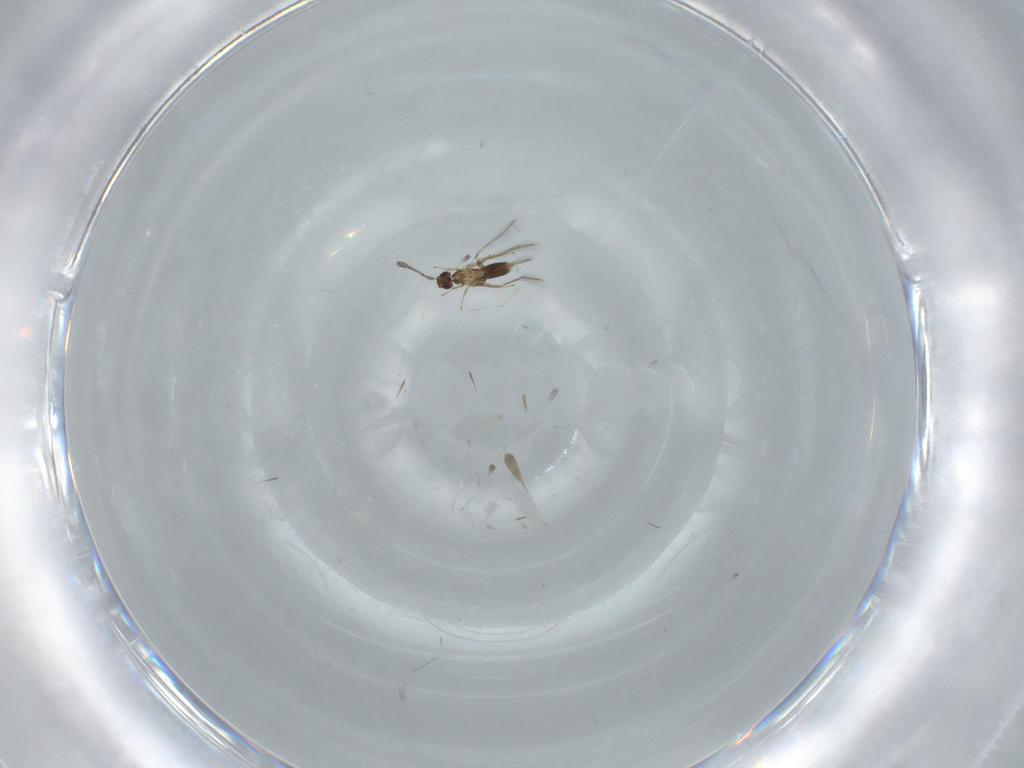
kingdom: Animalia
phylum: Arthropoda
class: Insecta
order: Hymenoptera
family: Mymaridae
